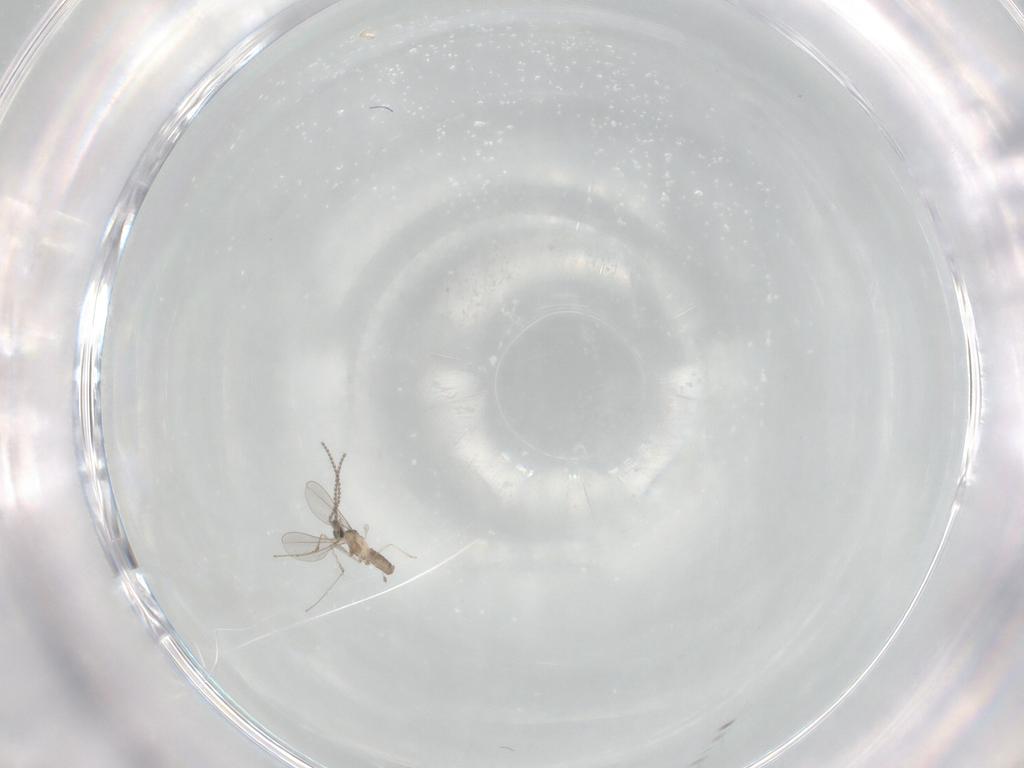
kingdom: Animalia
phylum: Arthropoda
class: Insecta
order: Diptera
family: Cecidomyiidae
